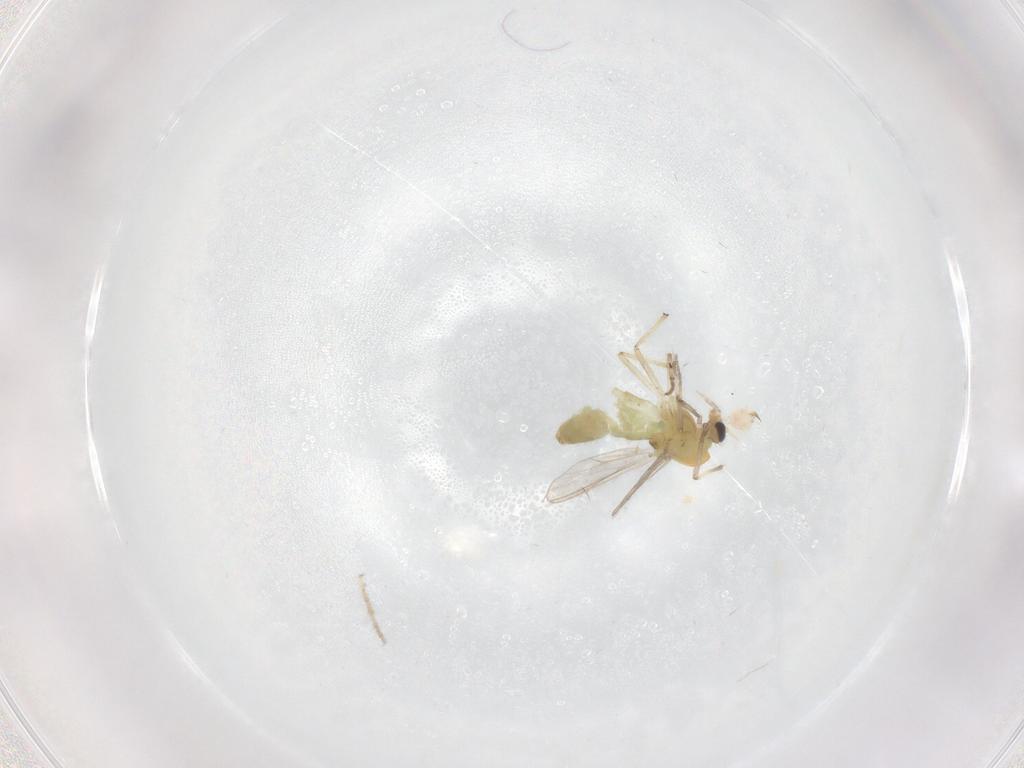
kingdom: Animalia
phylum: Arthropoda
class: Insecta
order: Diptera
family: Chironomidae
